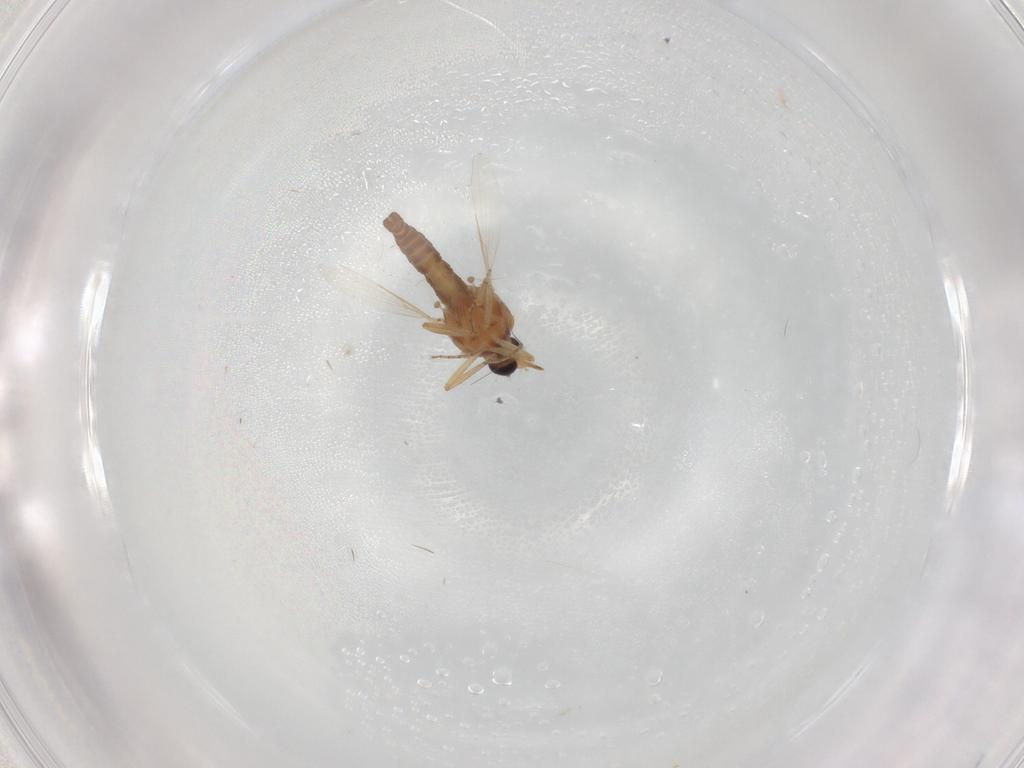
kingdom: Animalia
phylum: Arthropoda
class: Insecta
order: Diptera
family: Ceratopogonidae
